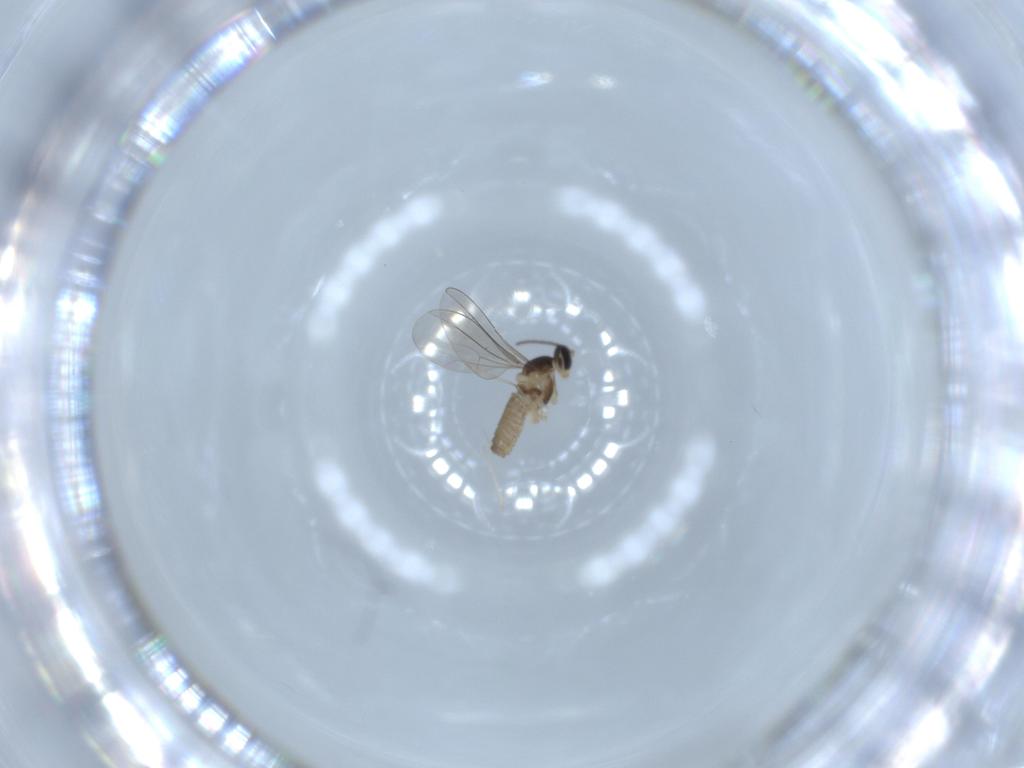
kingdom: Animalia
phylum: Arthropoda
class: Insecta
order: Diptera
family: Cecidomyiidae
